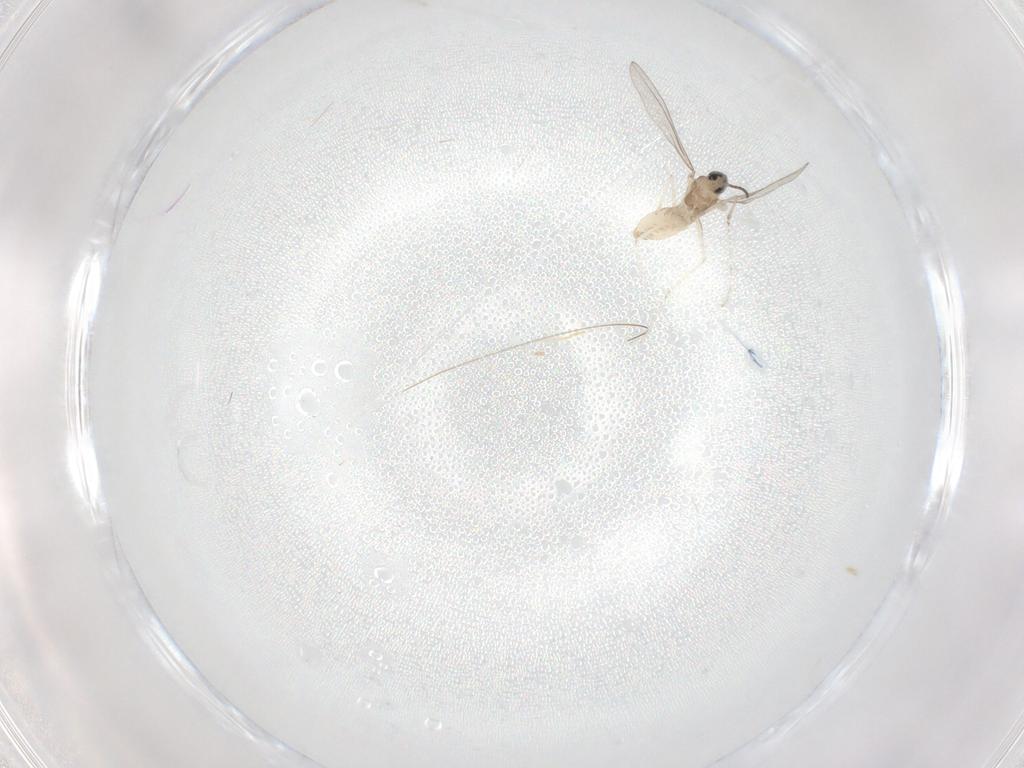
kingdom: Animalia
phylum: Arthropoda
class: Insecta
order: Diptera
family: Cecidomyiidae
